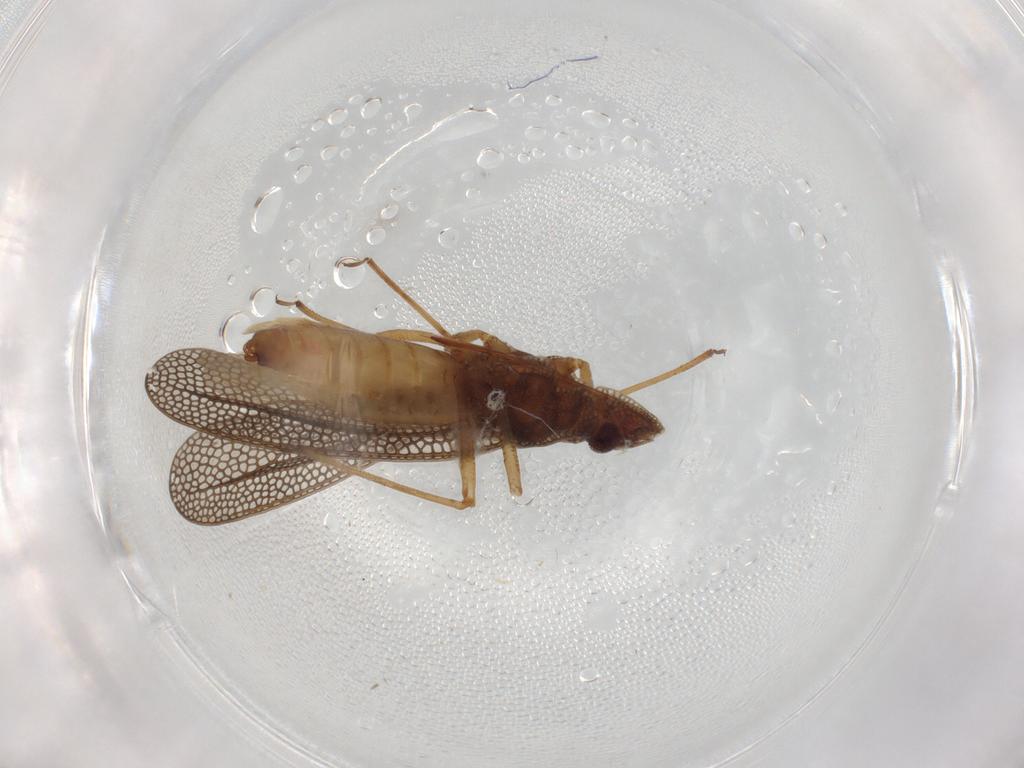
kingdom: Animalia
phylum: Arthropoda
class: Insecta
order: Hemiptera
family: Tingidae
